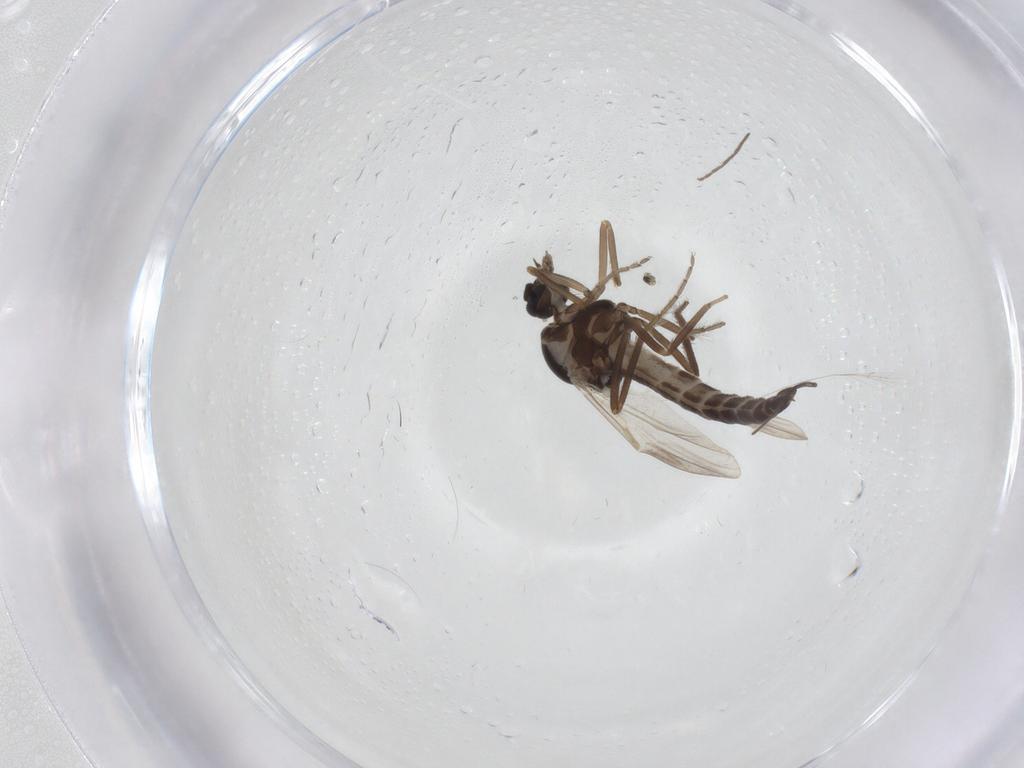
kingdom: Animalia
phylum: Arthropoda
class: Insecta
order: Diptera
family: Ceratopogonidae
